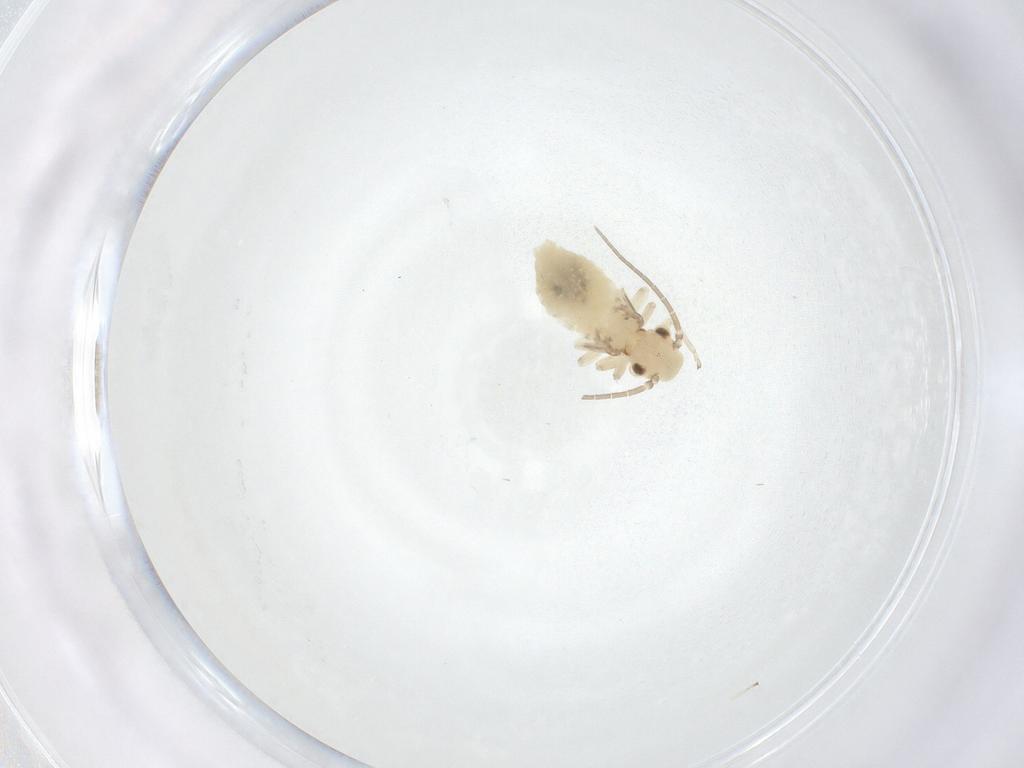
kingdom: Animalia
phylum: Arthropoda
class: Insecta
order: Psocodea
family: Caeciliusidae
